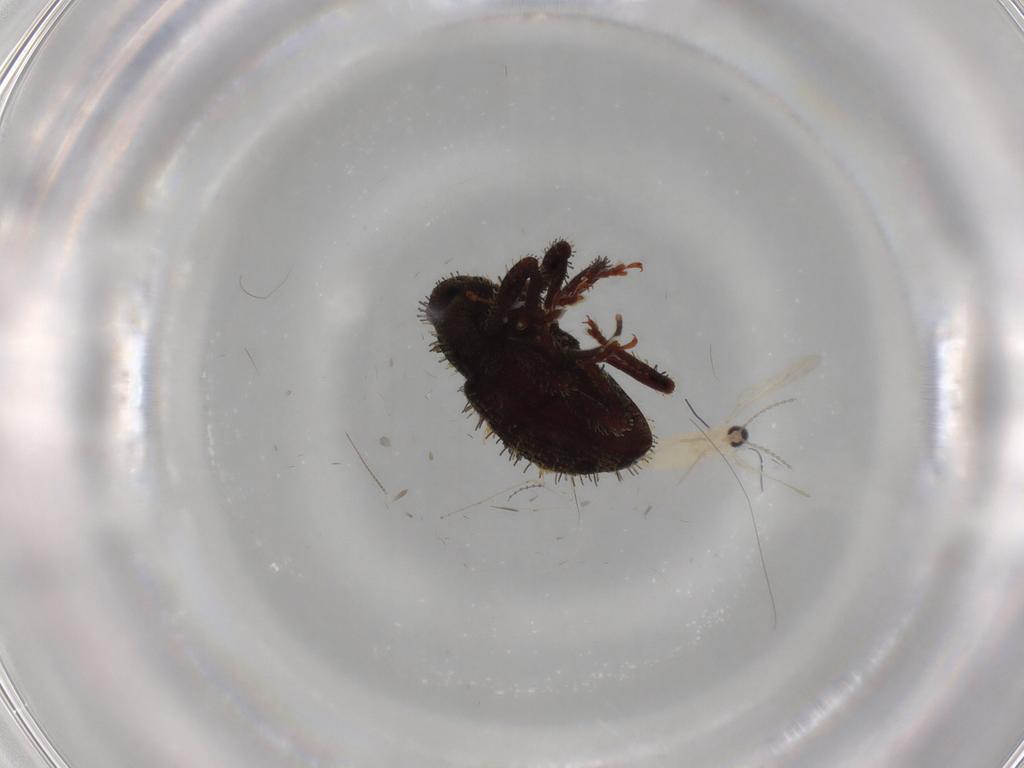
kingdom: Animalia
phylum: Arthropoda
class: Insecta
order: Coleoptera
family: Curculionidae
